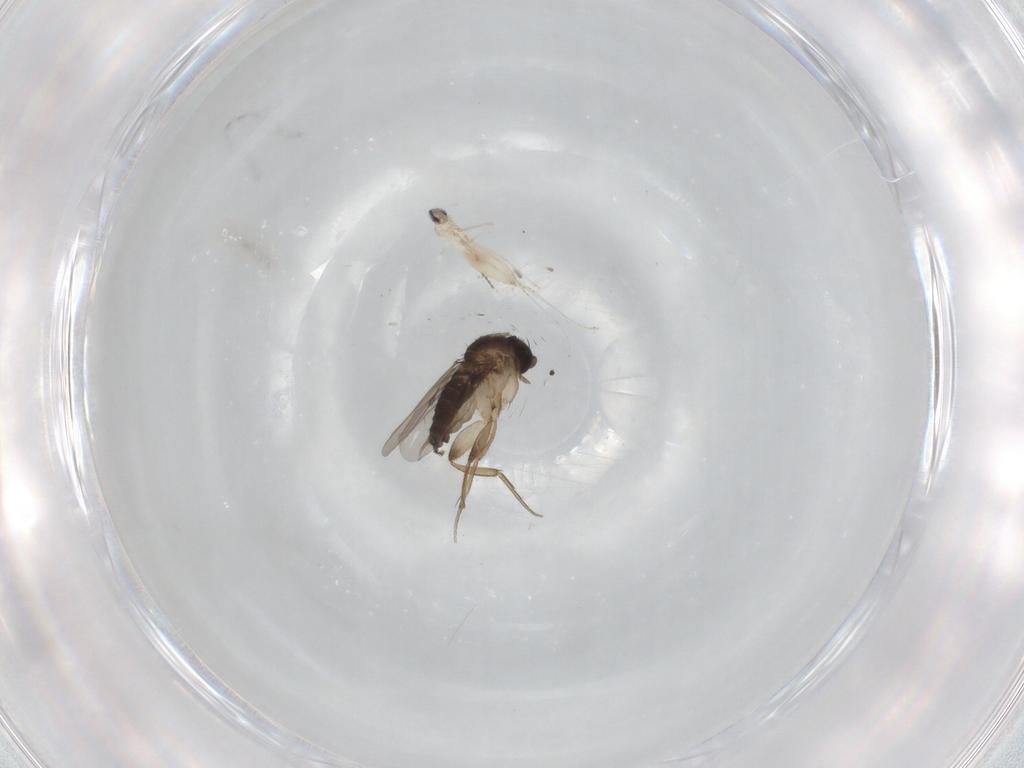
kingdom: Animalia
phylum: Arthropoda
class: Insecta
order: Diptera
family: Cecidomyiidae
